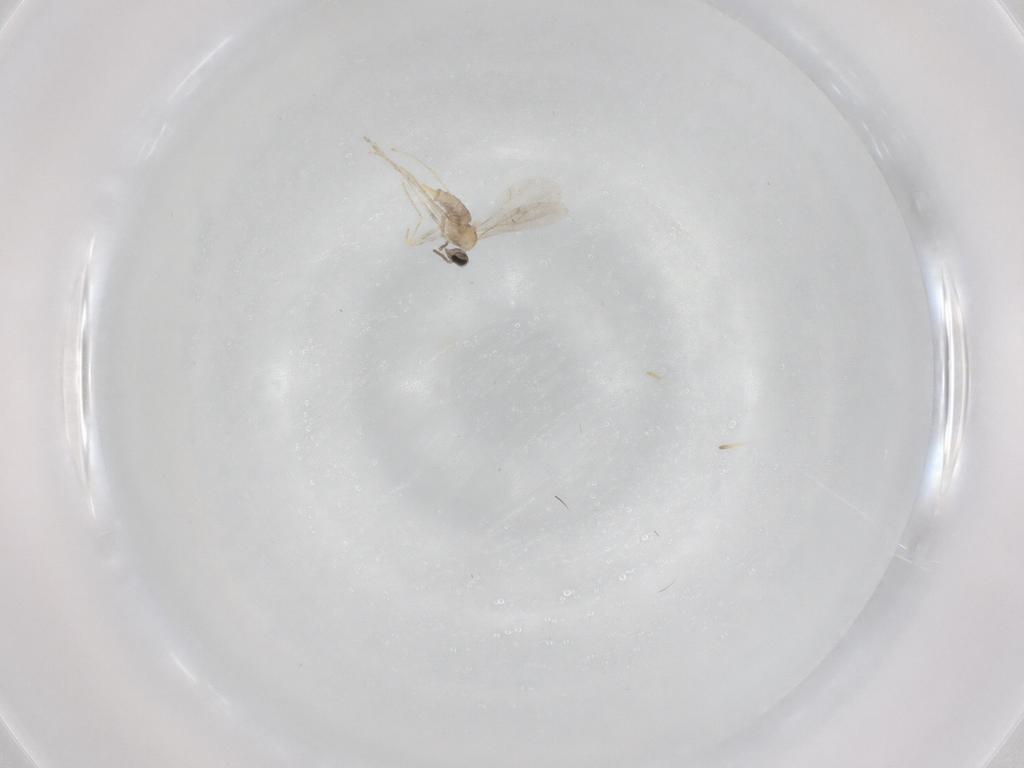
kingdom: Animalia
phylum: Arthropoda
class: Insecta
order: Diptera
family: Cecidomyiidae
